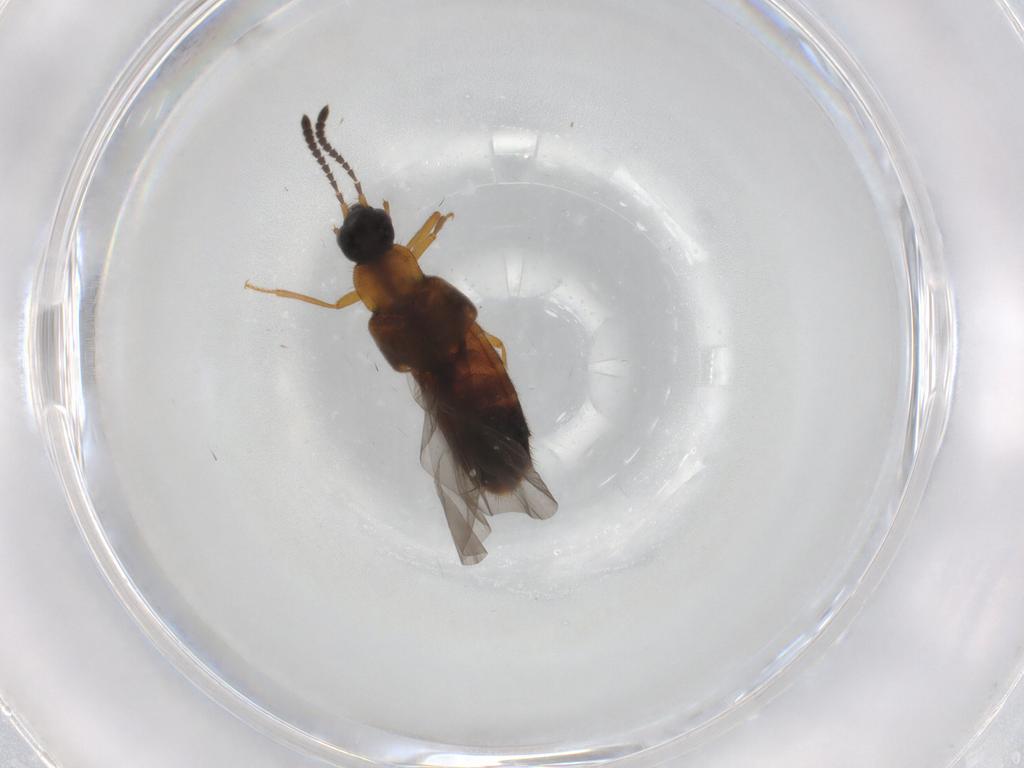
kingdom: Animalia
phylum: Arthropoda
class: Insecta
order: Coleoptera
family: Staphylinidae
